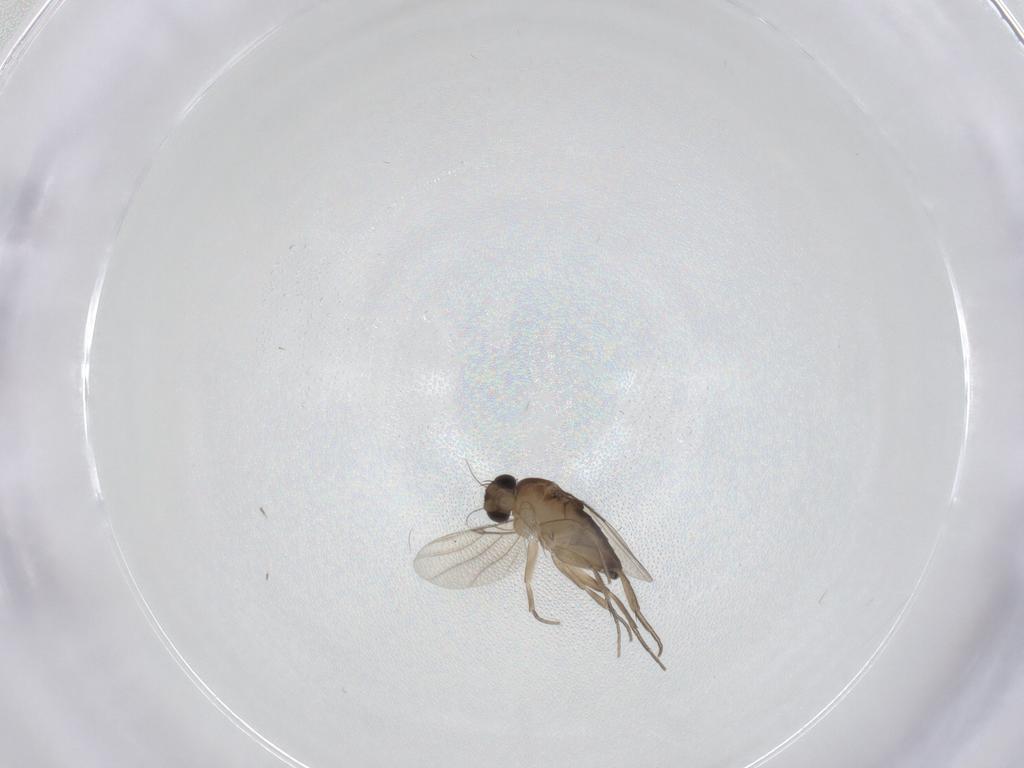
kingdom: Animalia
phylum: Arthropoda
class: Insecta
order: Diptera
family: Phoridae
